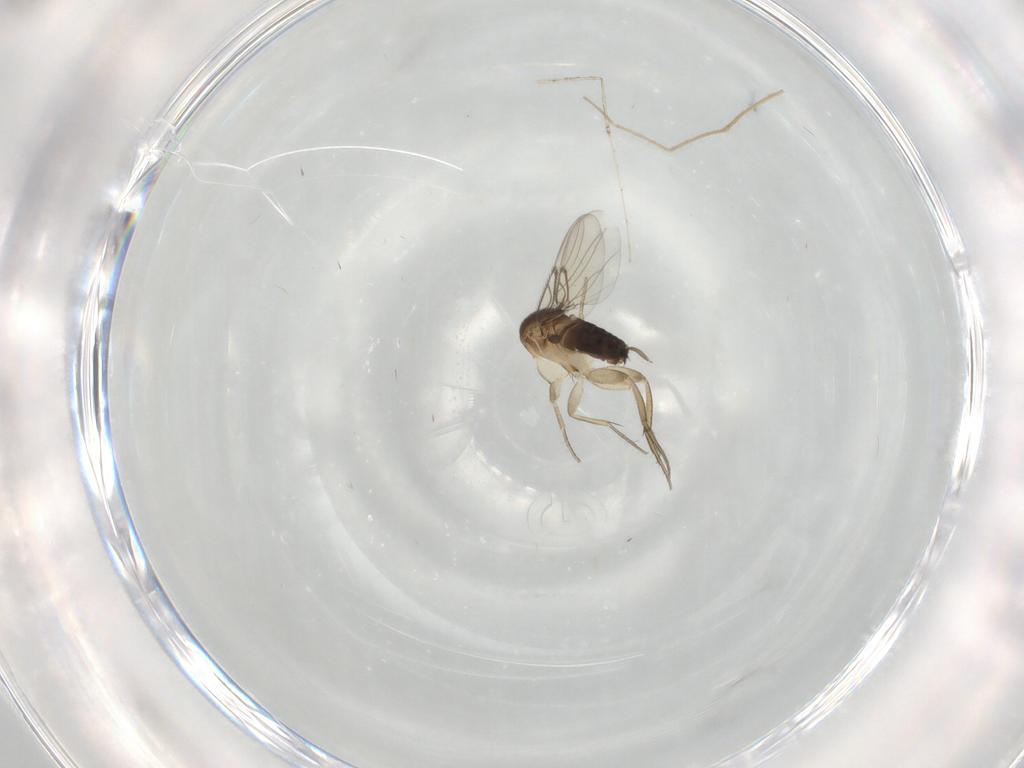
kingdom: Animalia
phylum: Arthropoda
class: Insecta
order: Diptera
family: Chironomidae
